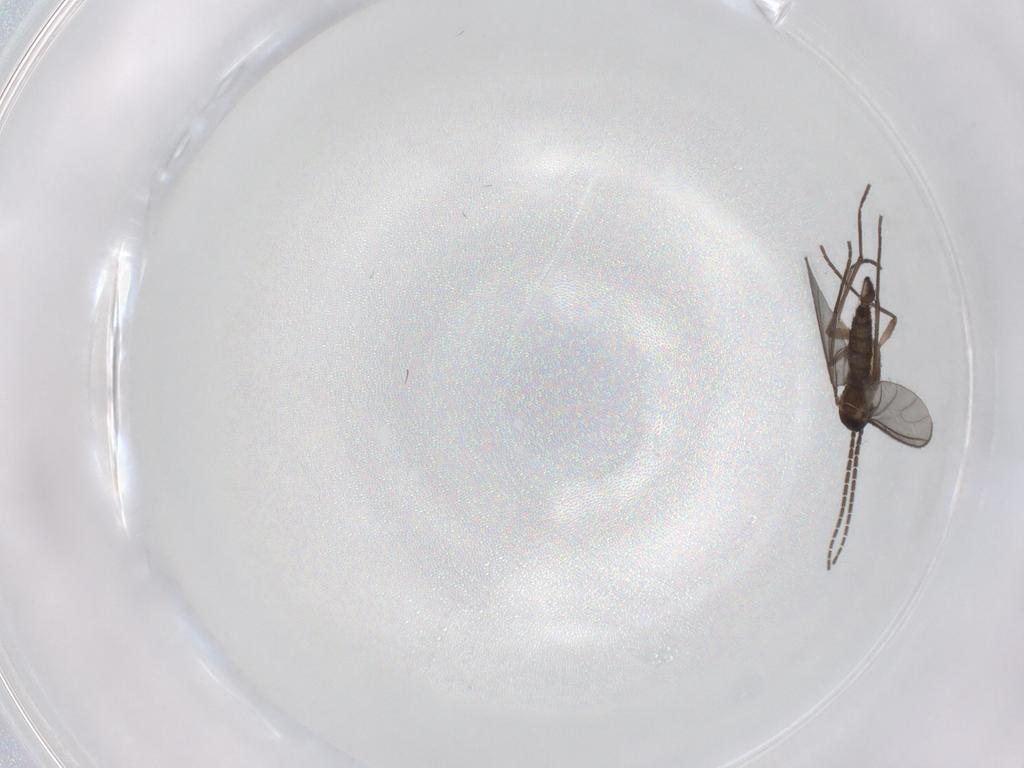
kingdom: Animalia
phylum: Arthropoda
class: Insecta
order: Diptera
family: Sciaridae
